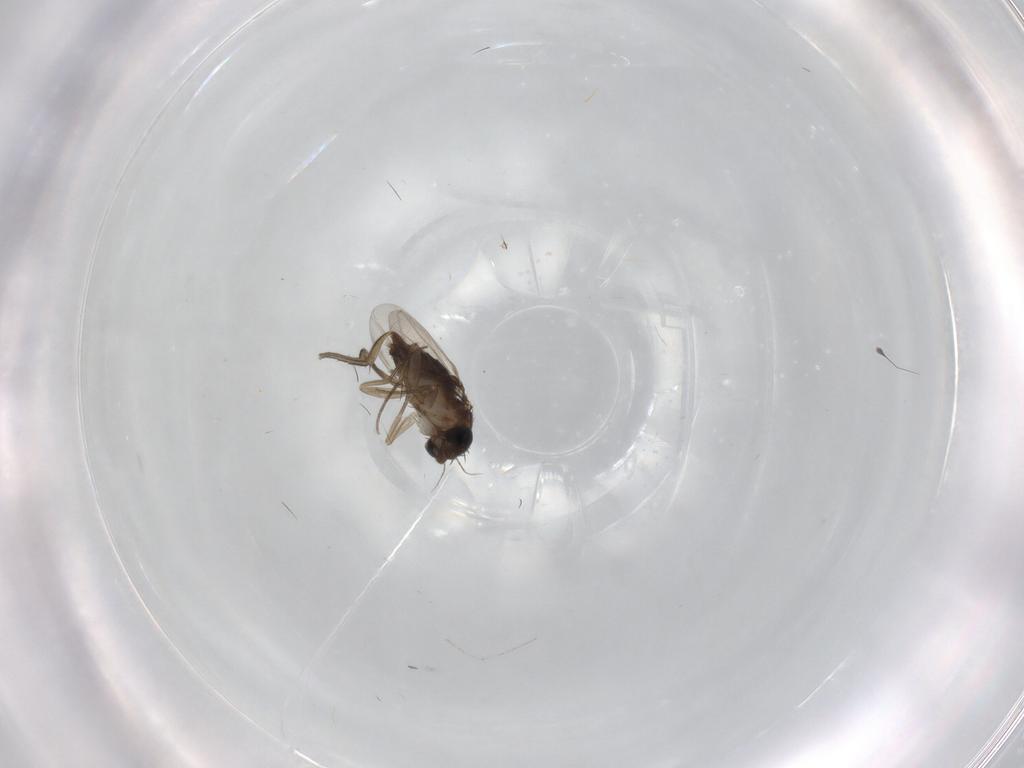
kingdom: Animalia
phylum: Arthropoda
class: Insecta
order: Diptera
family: Phoridae
